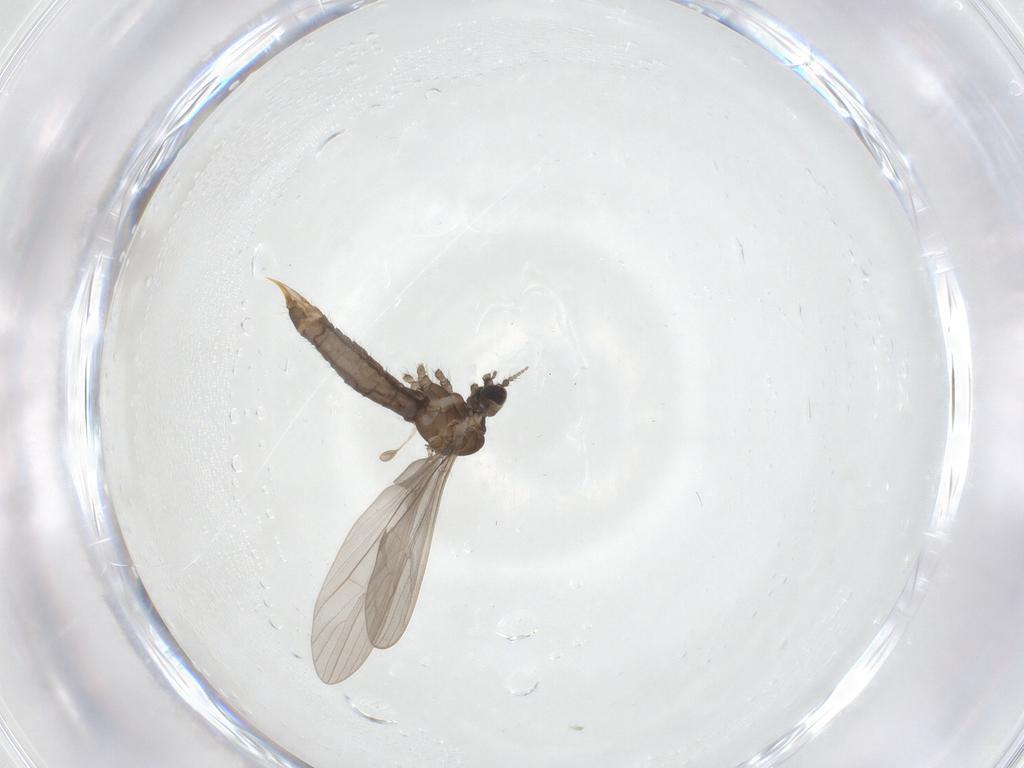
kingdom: Animalia
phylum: Arthropoda
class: Insecta
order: Diptera
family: Limoniidae
